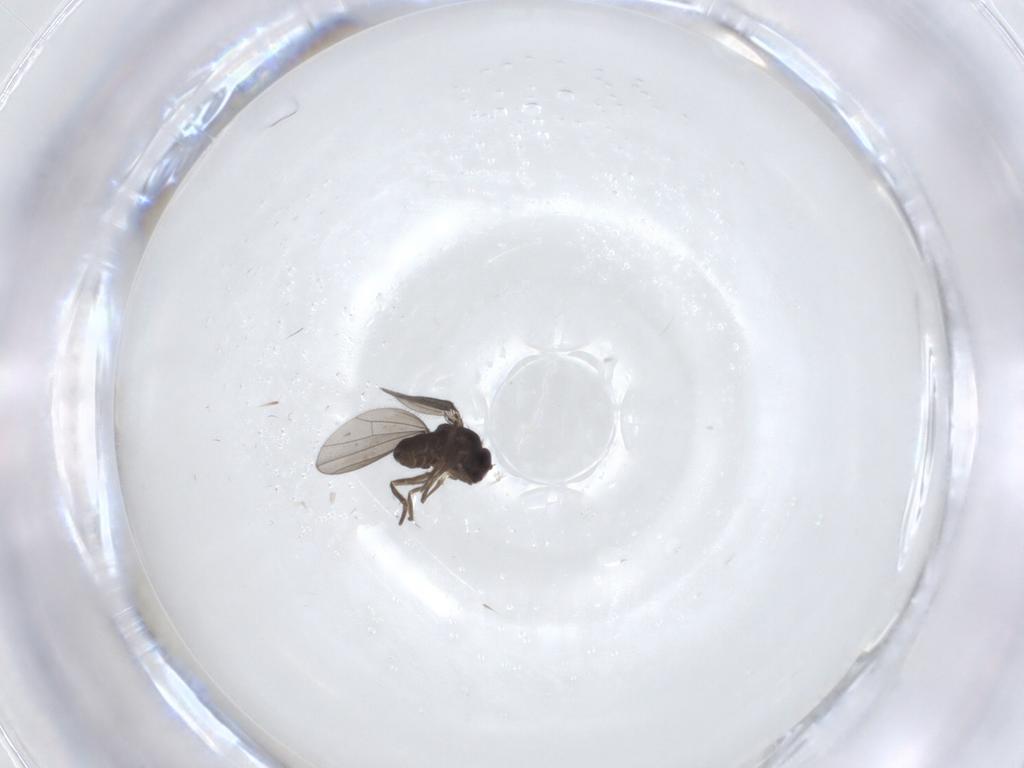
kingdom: Animalia
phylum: Arthropoda
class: Insecta
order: Diptera
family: Dolichopodidae
